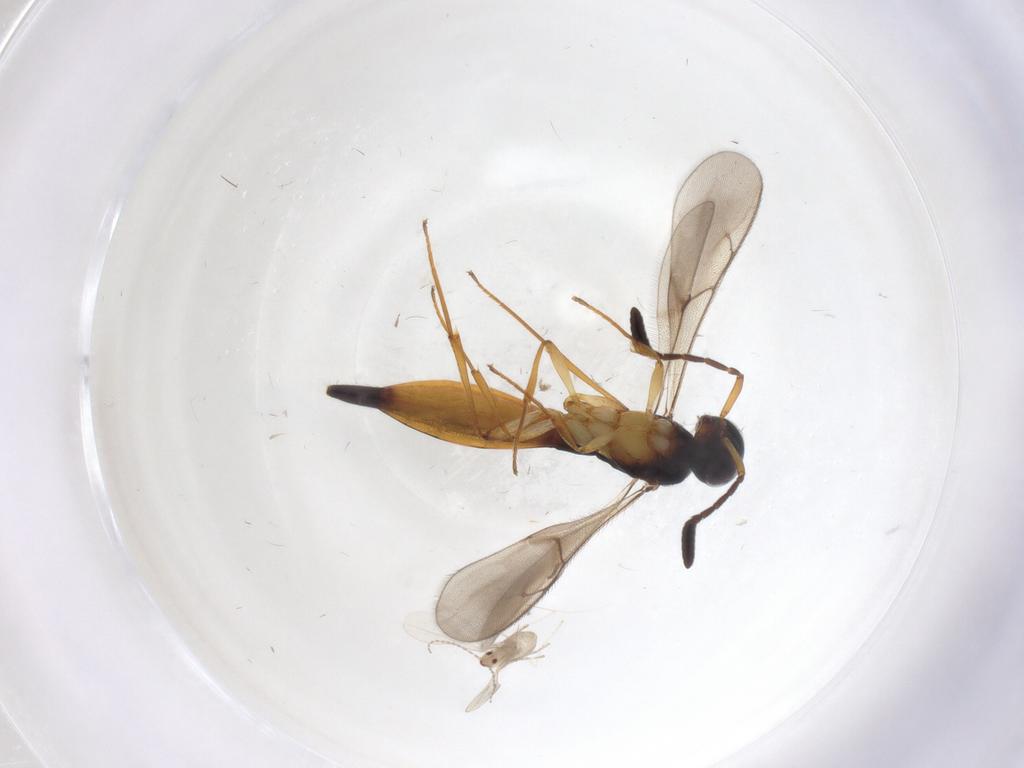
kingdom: Animalia
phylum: Arthropoda
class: Insecta
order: Hymenoptera
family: Scelionidae
